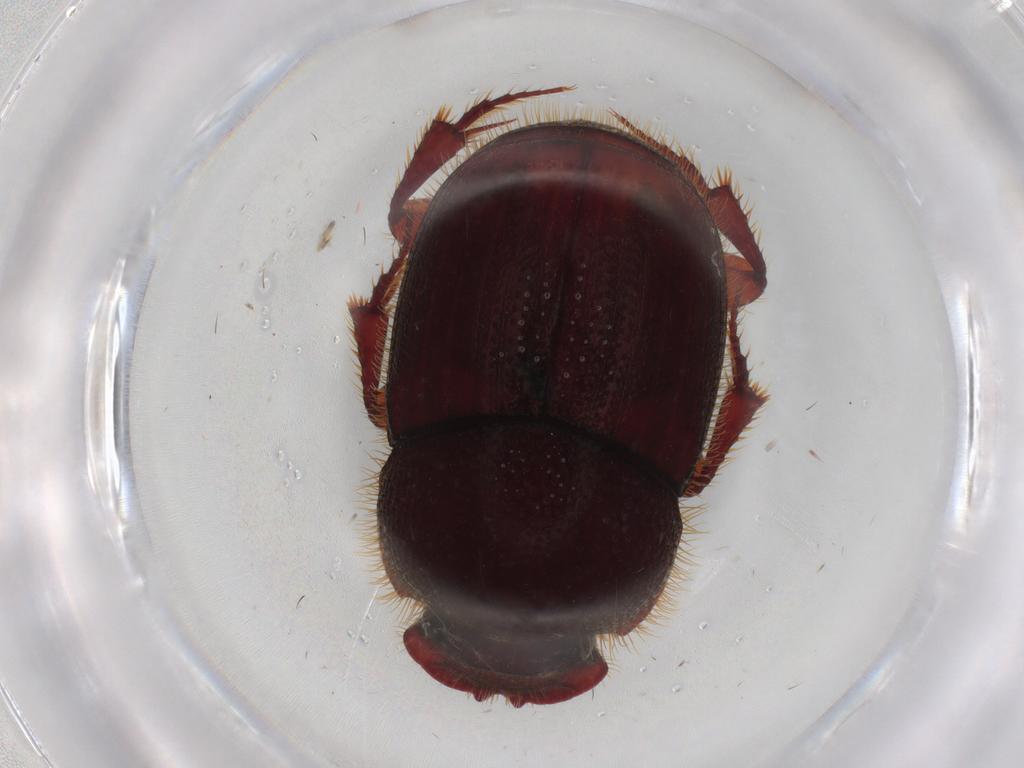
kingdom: Animalia
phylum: Arthropoda
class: Insecta
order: Coleoptera
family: Scarabaeidae
